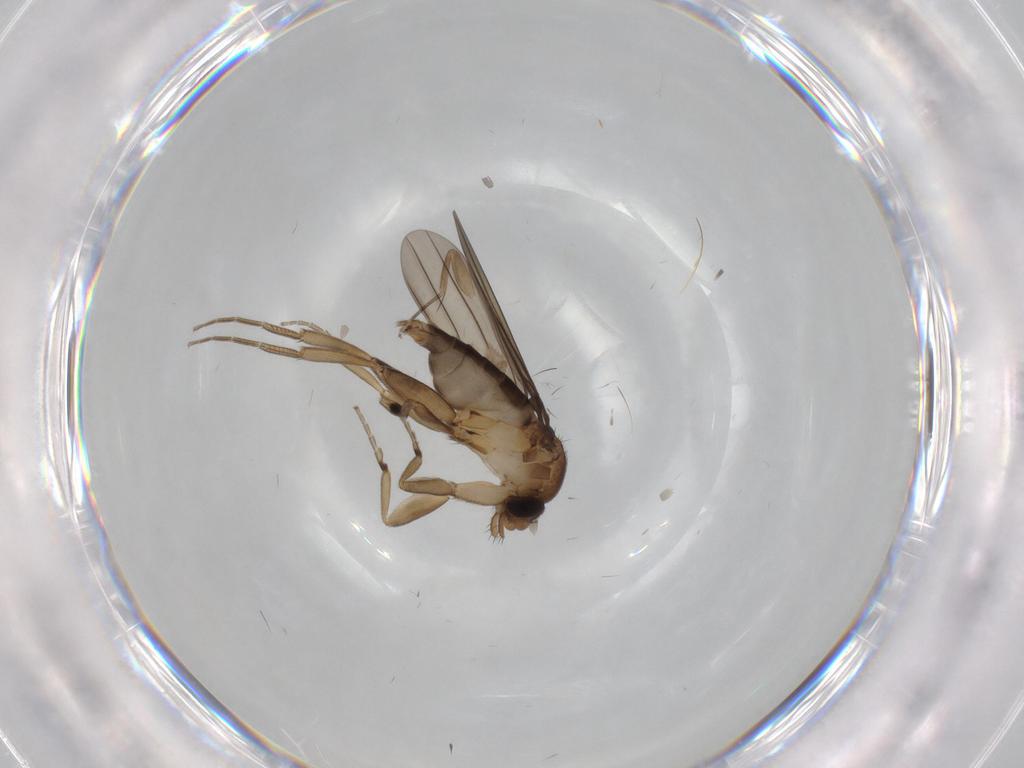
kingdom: Animalia
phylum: Arthropoda
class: Insecta
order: Diptera
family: Phoridae
